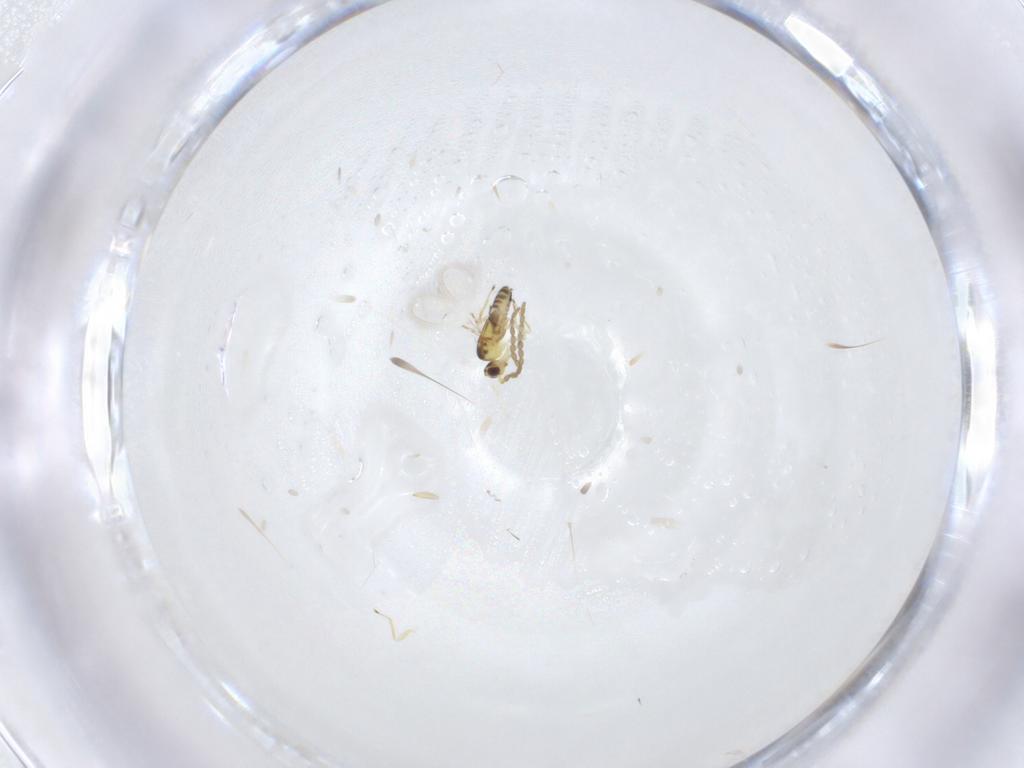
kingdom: Animalia
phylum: Arthropoda
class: Insecta
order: Hymenoptera
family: Mymaridae
